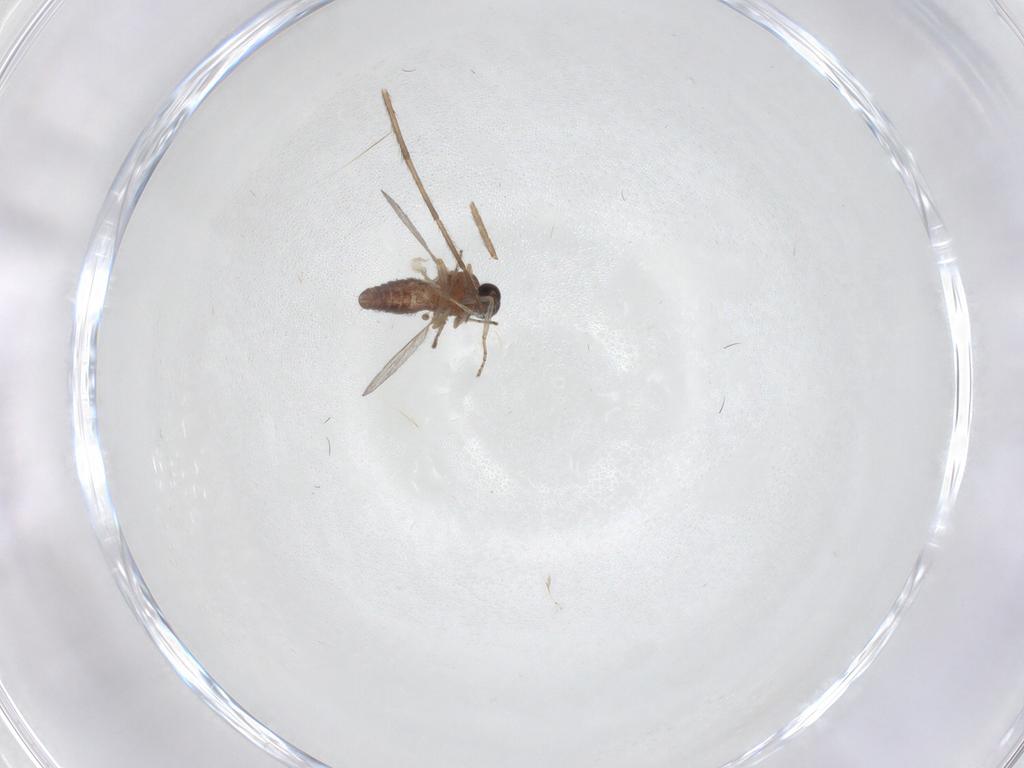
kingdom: Animalia
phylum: Arthropoda
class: Insecta
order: Diptera
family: Ceratopogonidae
